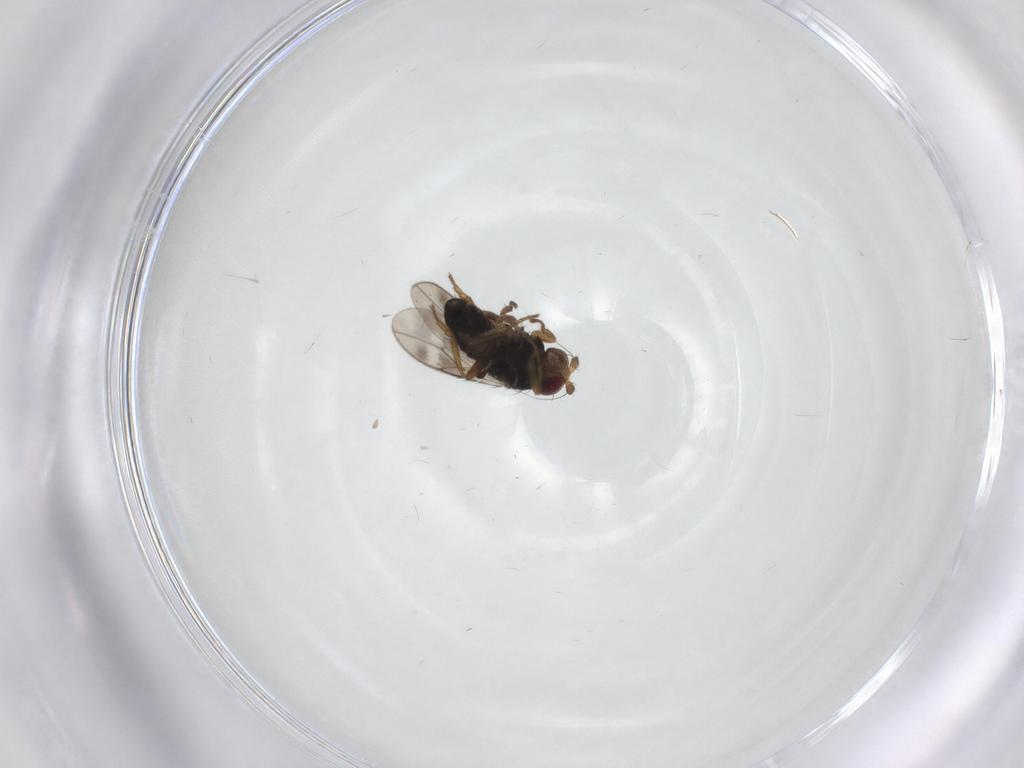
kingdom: Animalia
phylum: Arthropoda
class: Insecta
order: Diptera
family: Sphaeroceridae
